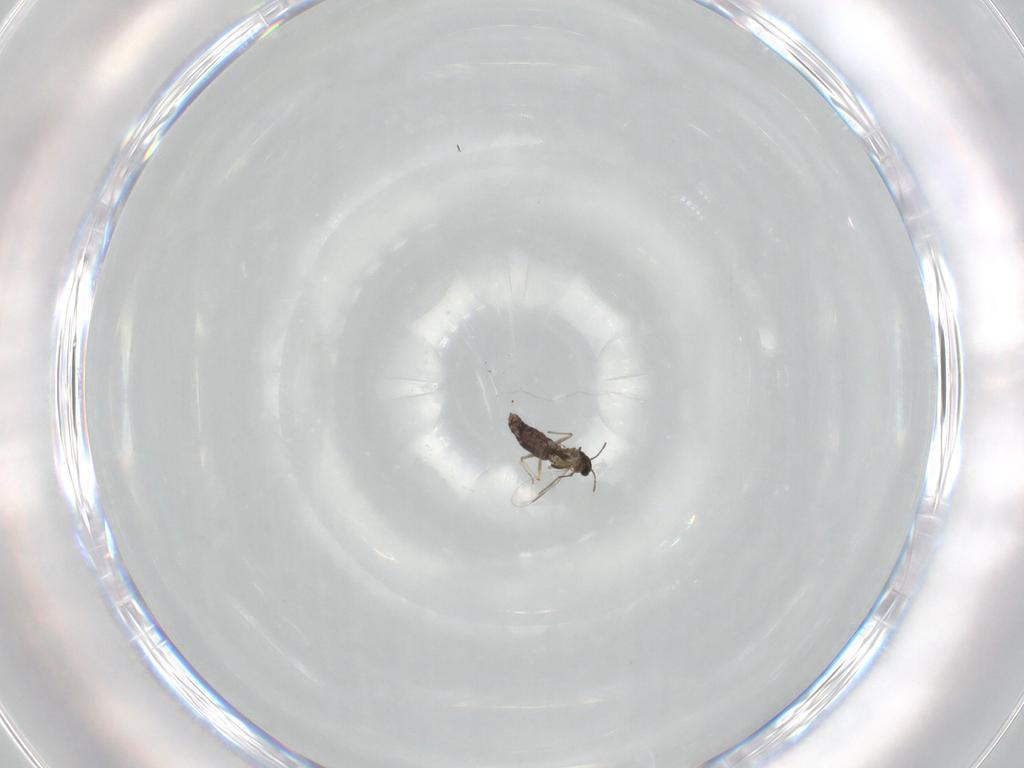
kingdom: Animalia
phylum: Arthropoda
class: Insecta
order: Diptera
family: Chironomidae
